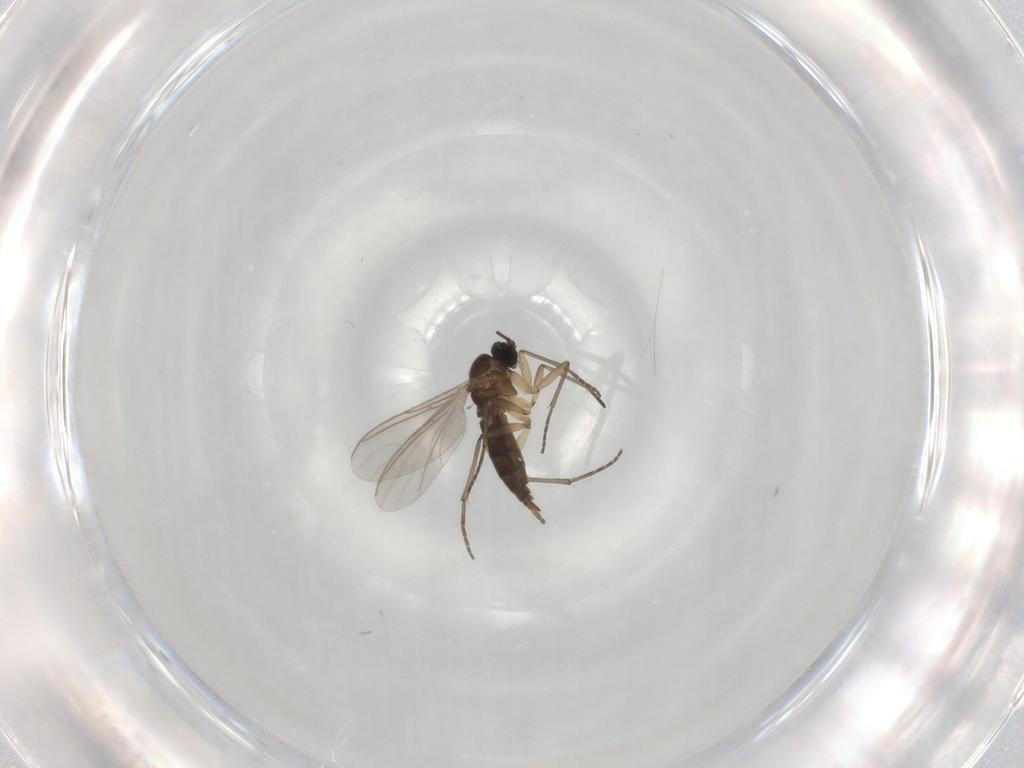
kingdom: Animalia
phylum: Arthropoda
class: Insecta
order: Diptera
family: Sciaridae
